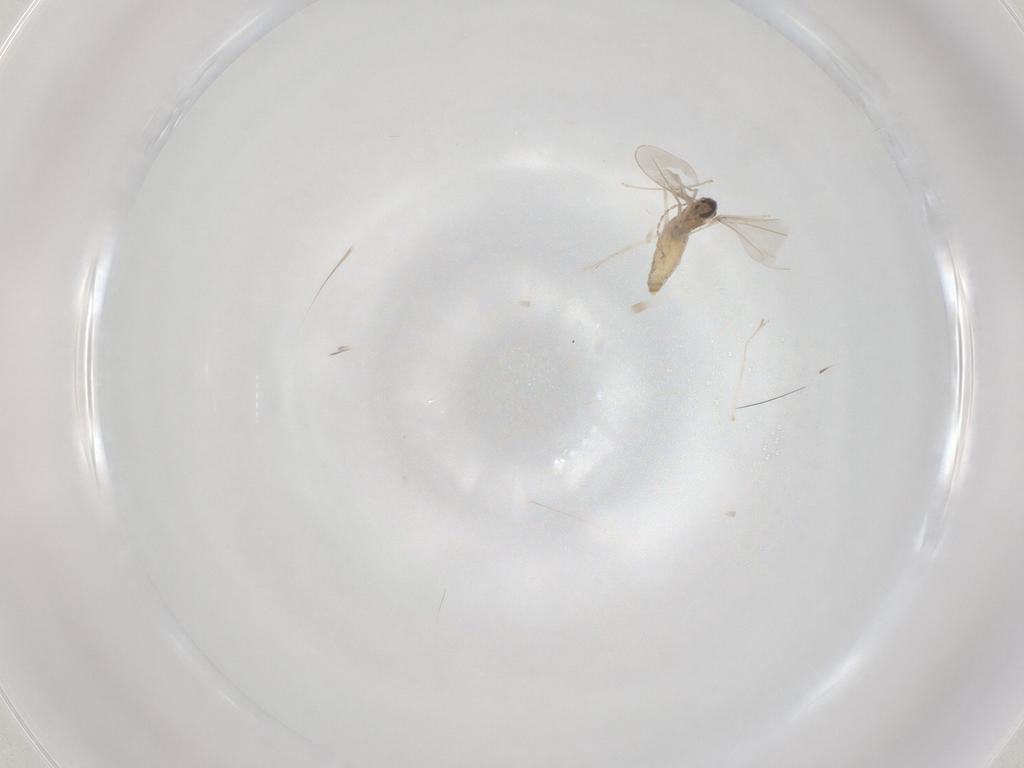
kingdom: Animalia
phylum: Arthropoda
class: Insecta
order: Diptera
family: Cecidomyiidae
